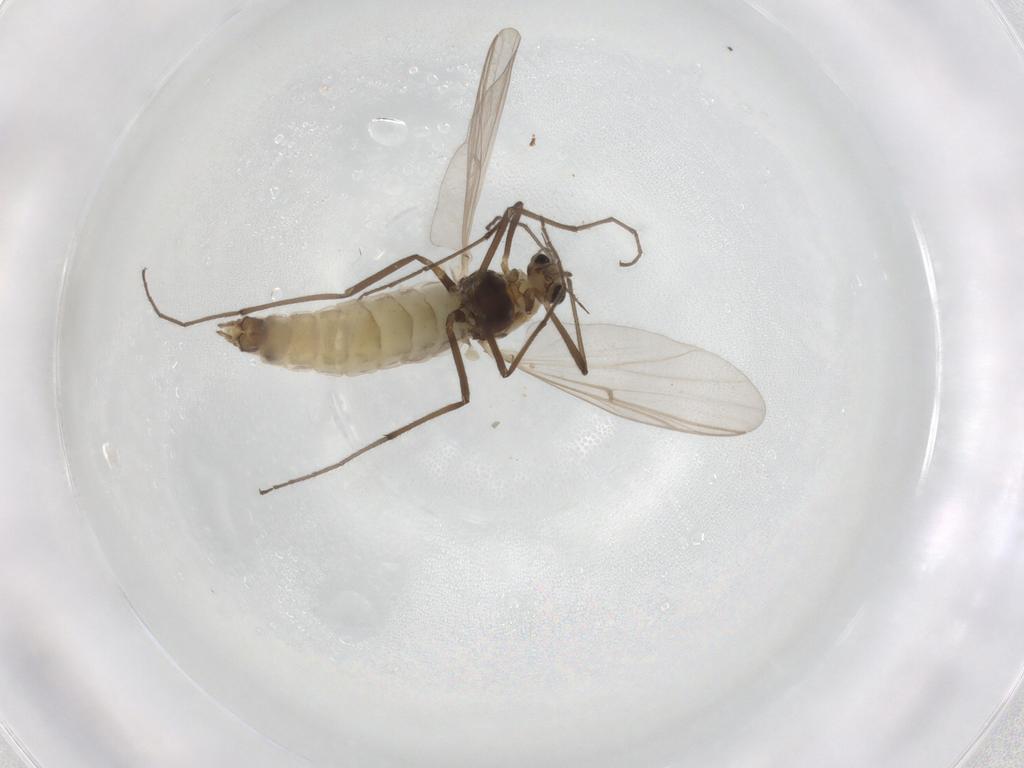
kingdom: Animalia
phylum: Arthropoda
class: Insecta
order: Diptera
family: Chironomidae
